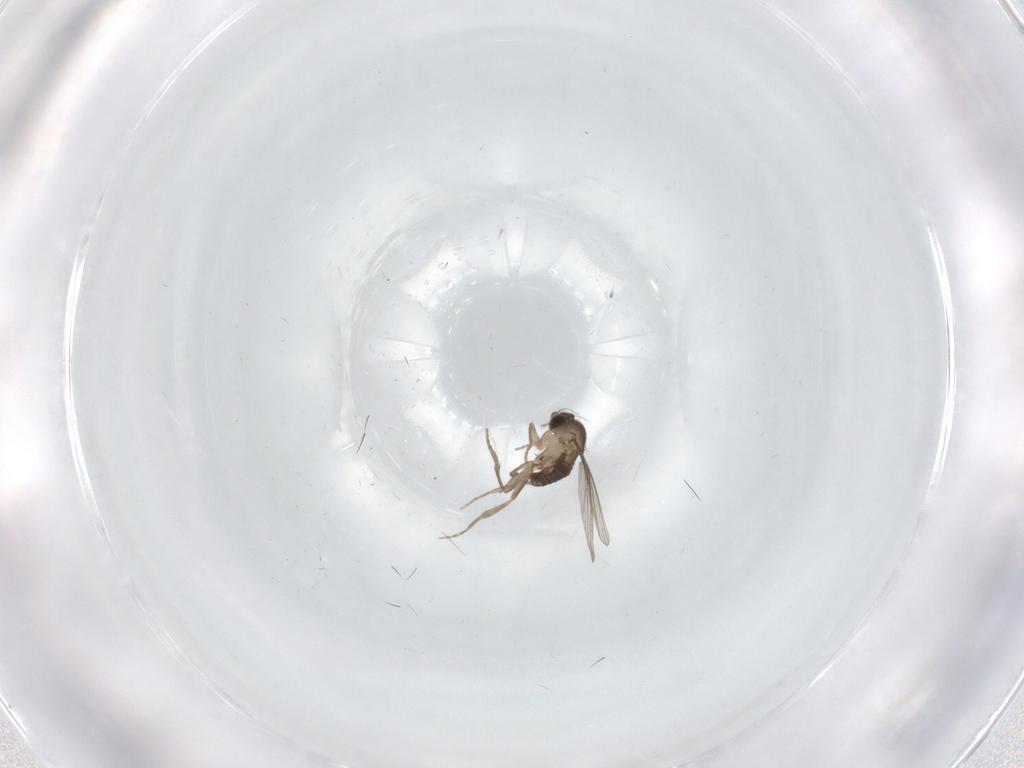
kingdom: Animalia
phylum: Arthropoda
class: Insecta
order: Diptera
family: Phoridae
